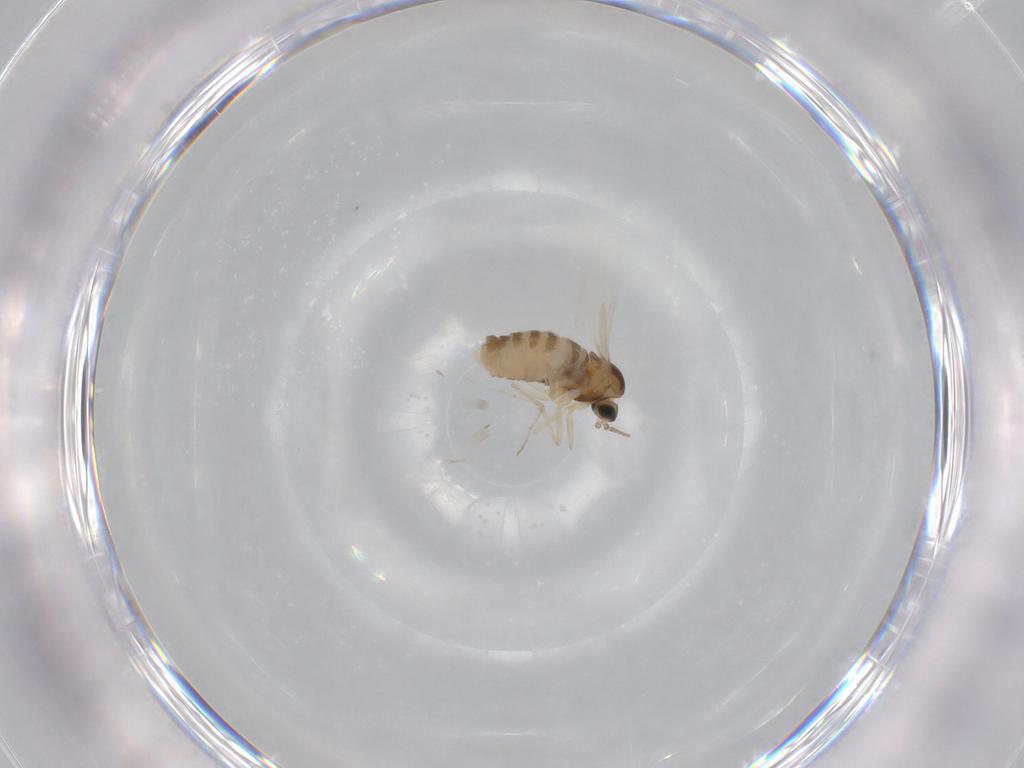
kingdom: Animalia
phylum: Arthropoda
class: Insecta
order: Diptera
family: Cecidomyiidae
